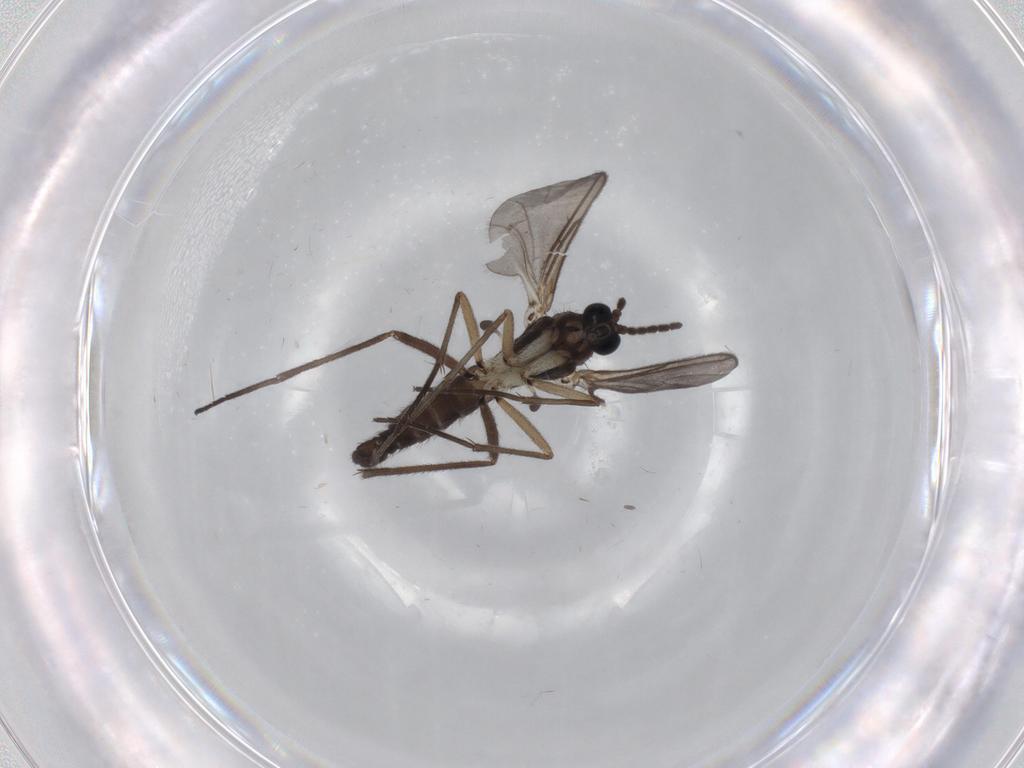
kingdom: Animalia
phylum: Arthropoda
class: Insecta
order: Diptera
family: Sciaridae
